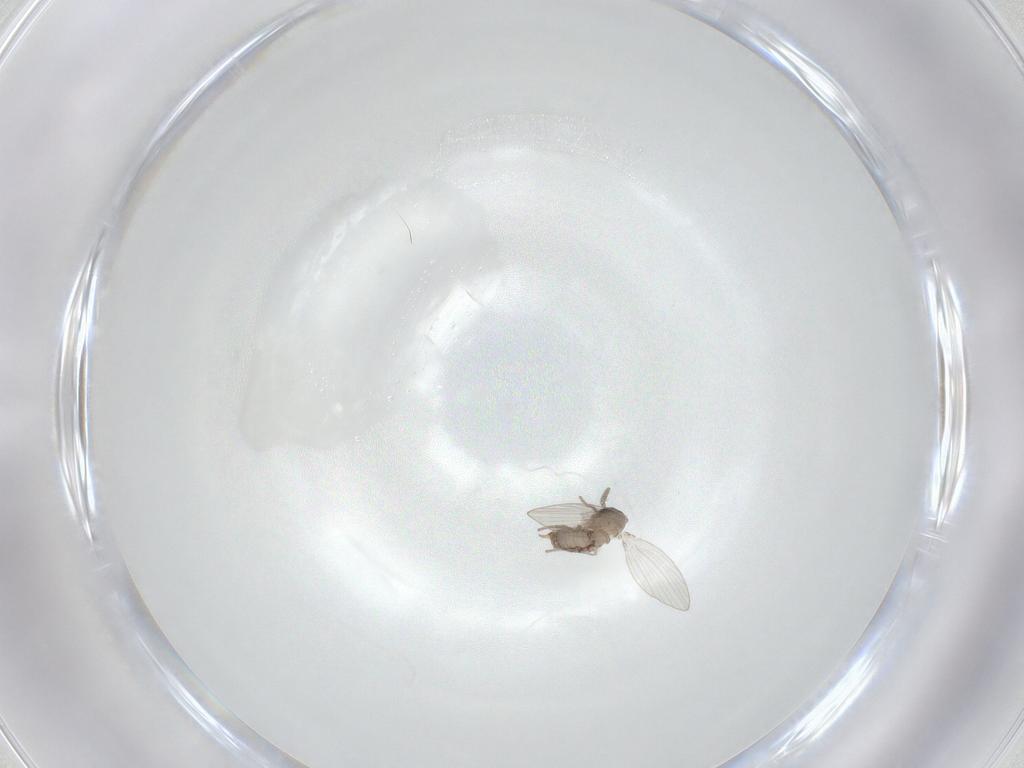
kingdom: Animalia
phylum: Arthropoda
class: Insecta
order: Diptera
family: Psychodidae
